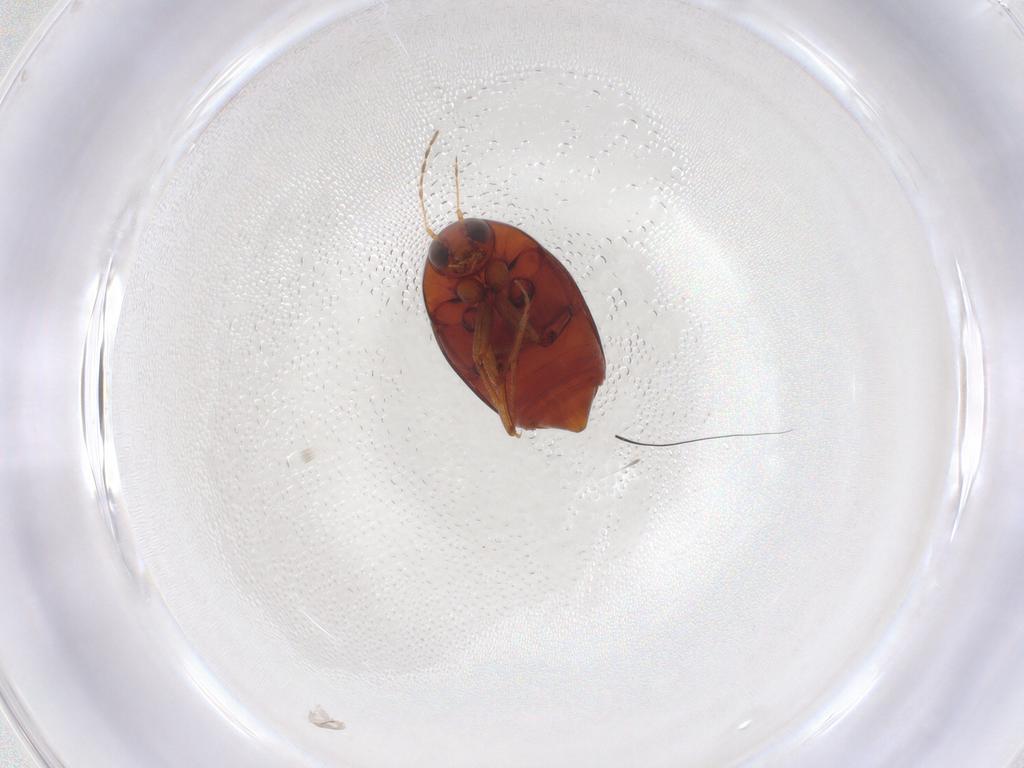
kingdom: Animalia
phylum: Arthropoda
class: Insecta
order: Coleoptera
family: Staphylinidae
